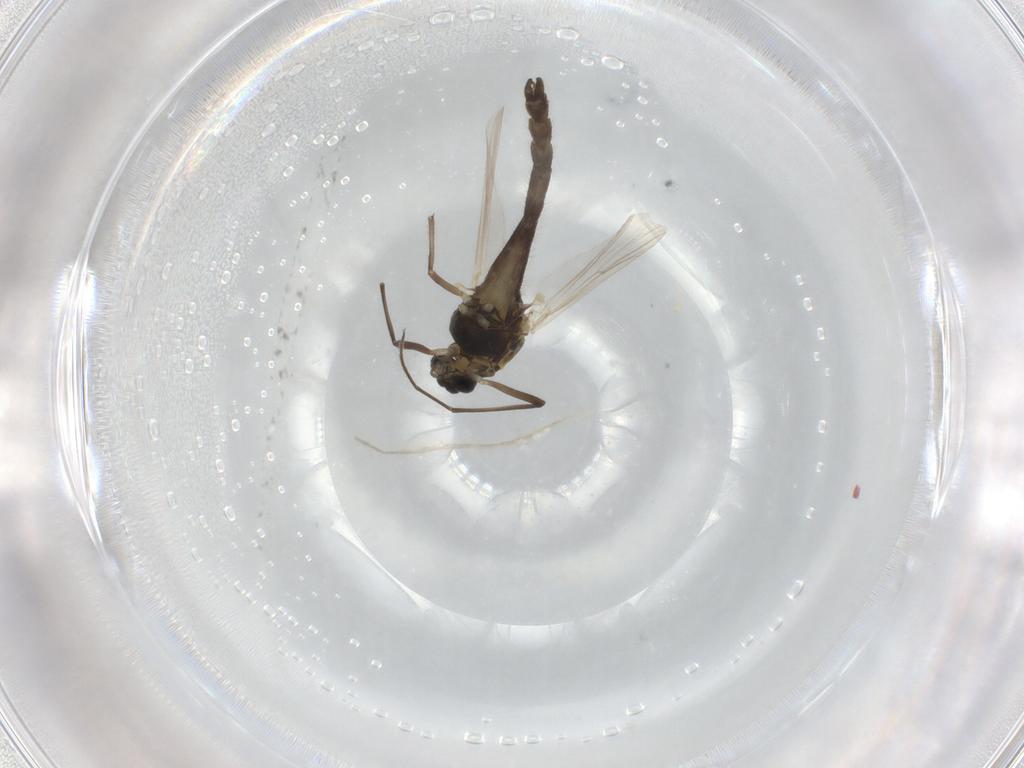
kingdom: Animalia
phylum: Arthropoda
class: Insecta
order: Diptera
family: Chironomidae
